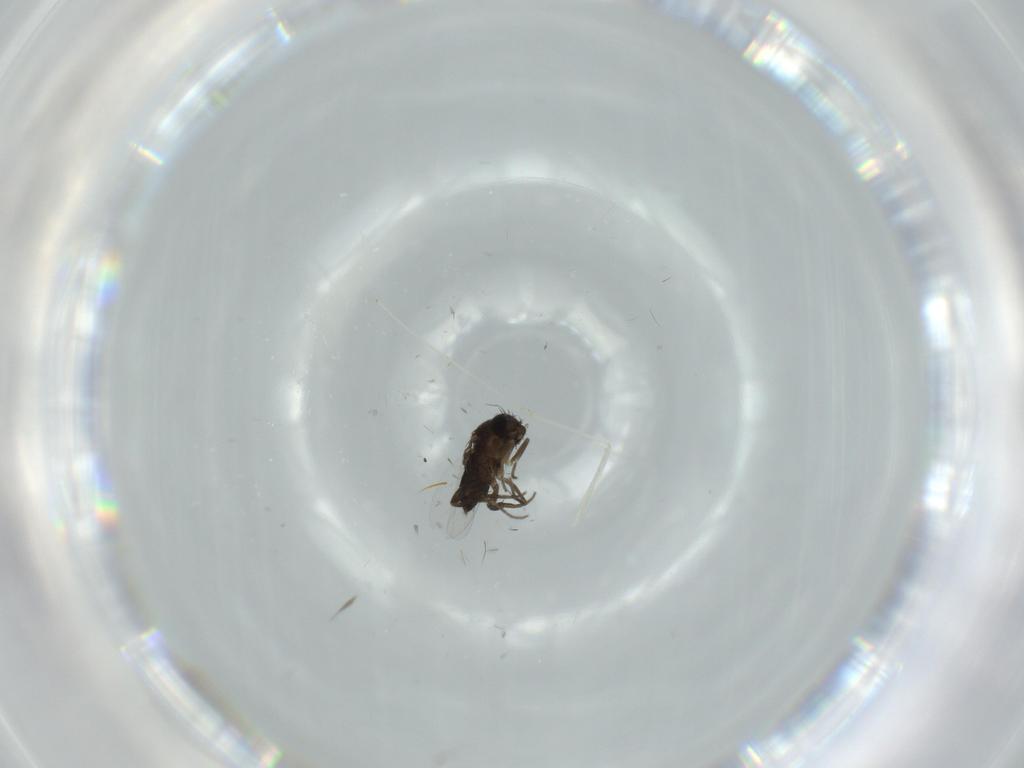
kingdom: Animalia
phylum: Arthropoda
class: Insecta
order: Diptera
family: Phoridae
